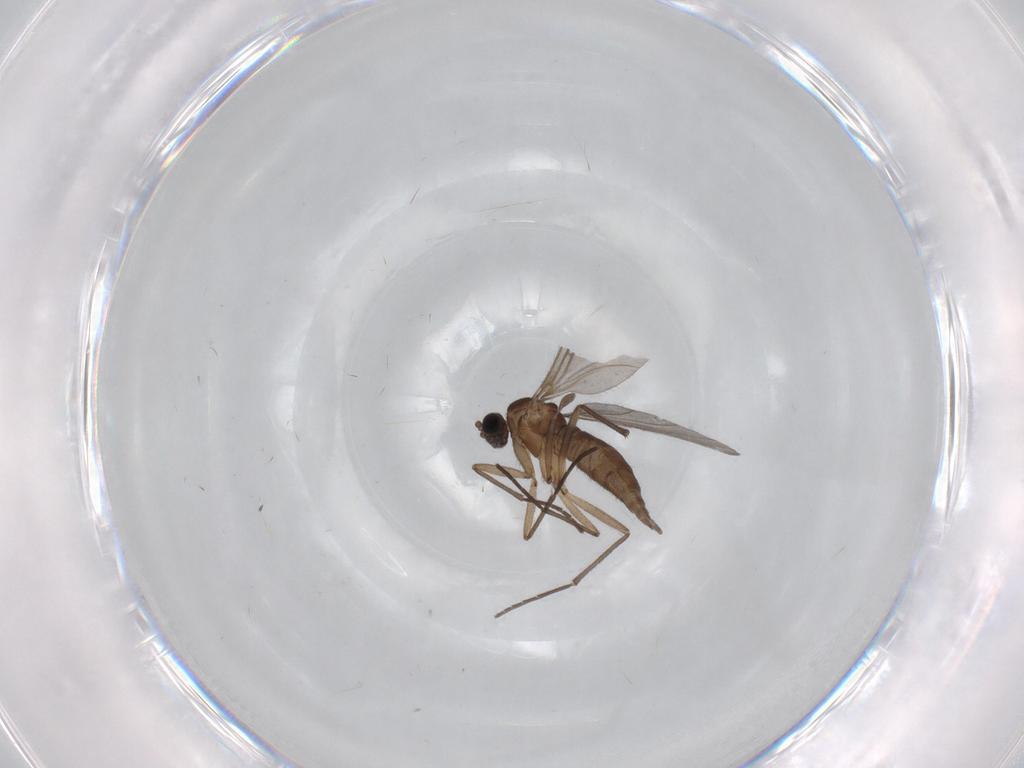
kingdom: Animalia
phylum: Arthropoda
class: Insecta
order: Diptera
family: Sciaridae
